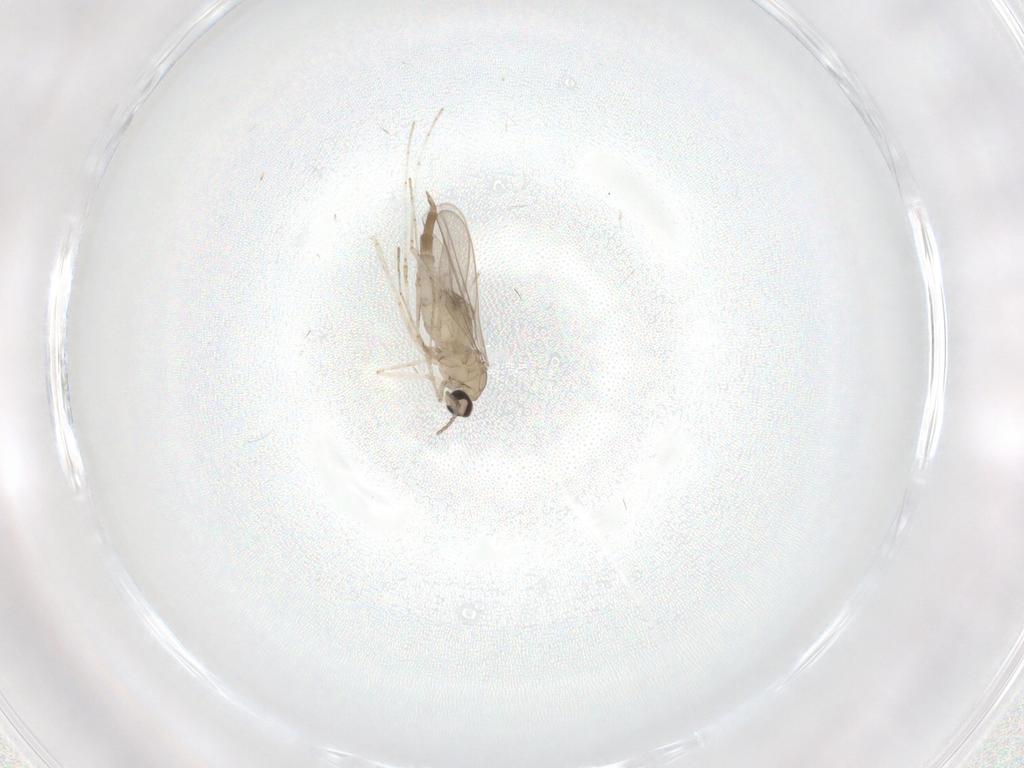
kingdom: Animalia
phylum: Arthropoda
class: Insecta
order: Diptera
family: Cecidomyiidae
